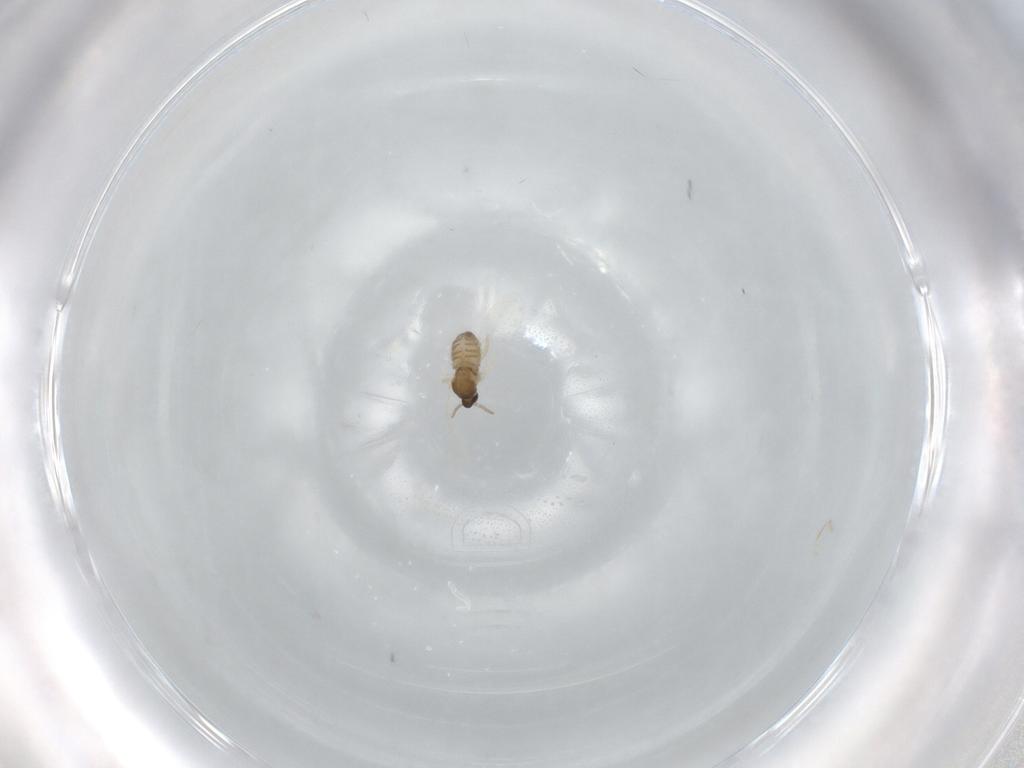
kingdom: Animalia
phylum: Arthropoda
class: Insecta
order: Diptera
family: Cecidomyiidae
